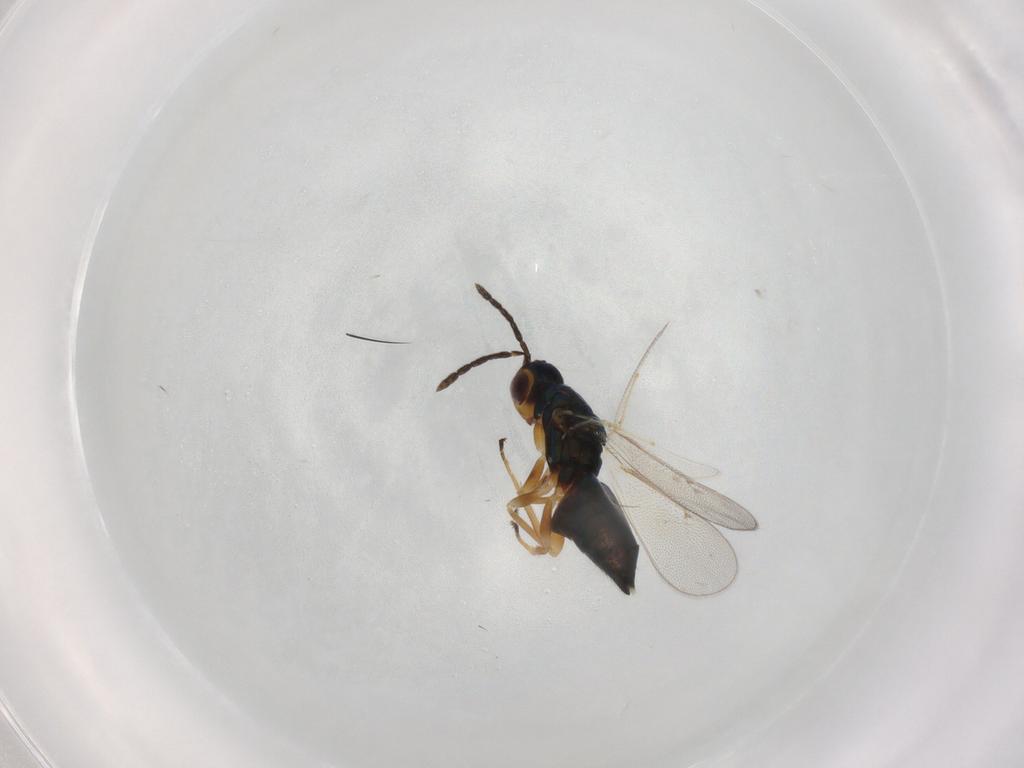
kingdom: Animalia
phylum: Arthropoda
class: Insecta
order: Hymenoptera
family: Eulophidae
